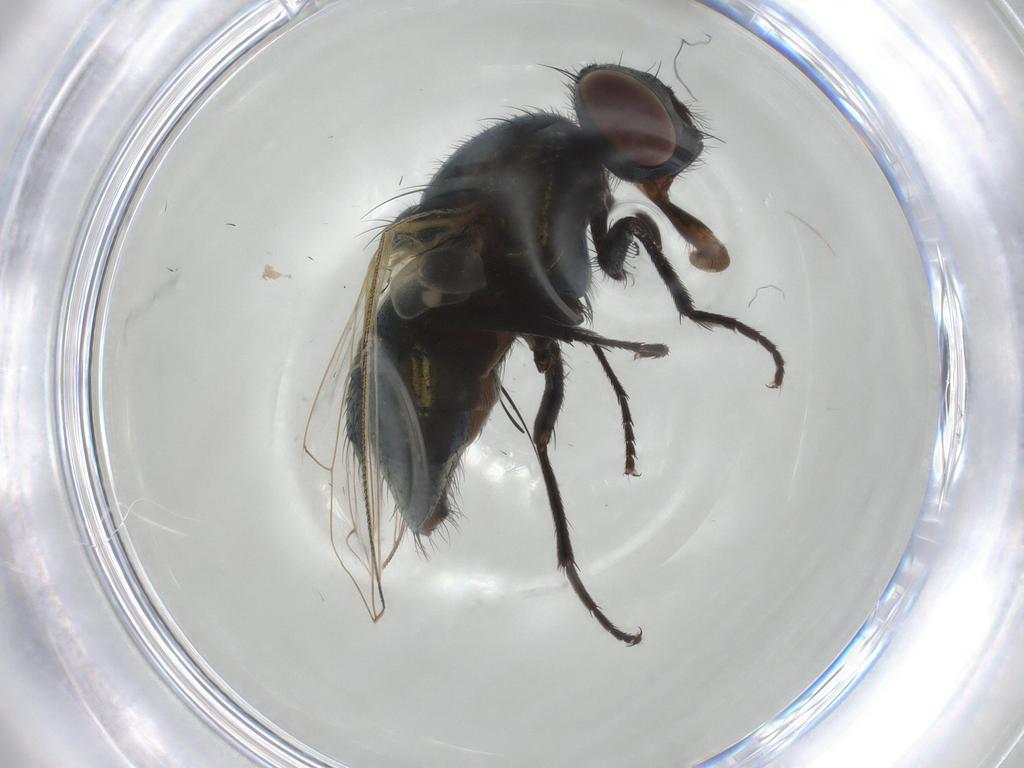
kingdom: Animalia
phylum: Arthropoda
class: Insecta
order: Diptera
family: Muscidae
